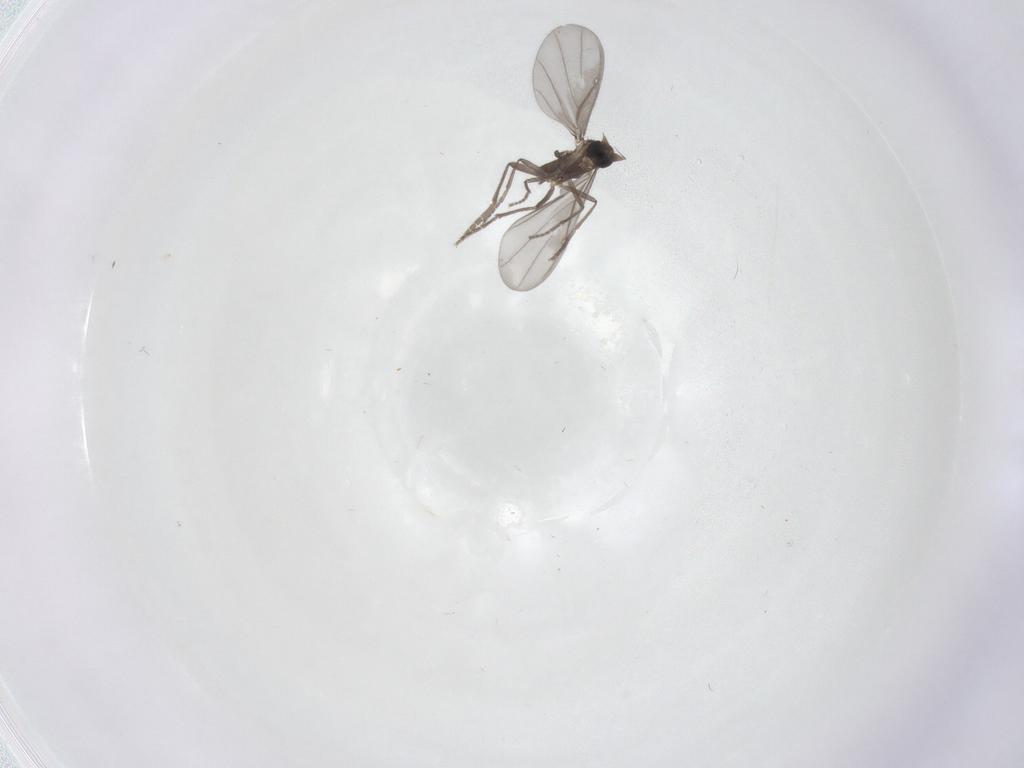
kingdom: Animalia
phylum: Arthropoda
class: Insecta
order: Diptera
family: Phoridae
